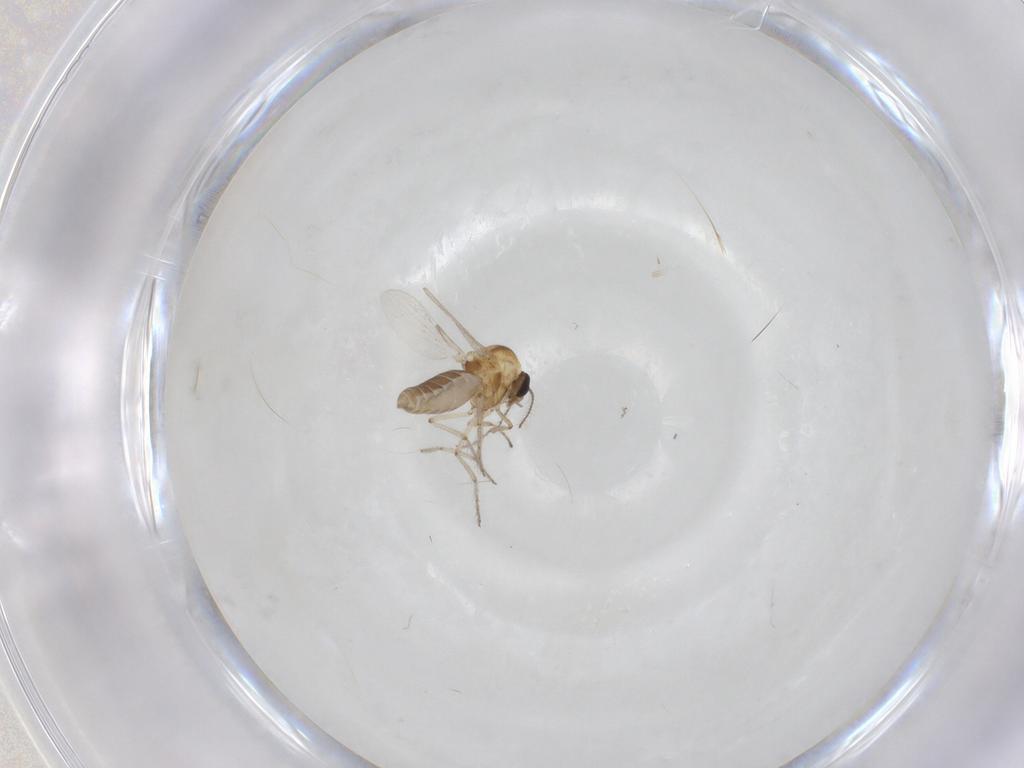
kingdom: Animalia
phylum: Arthropoda
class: Insecta
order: Diptera
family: Ceratopogonidae
